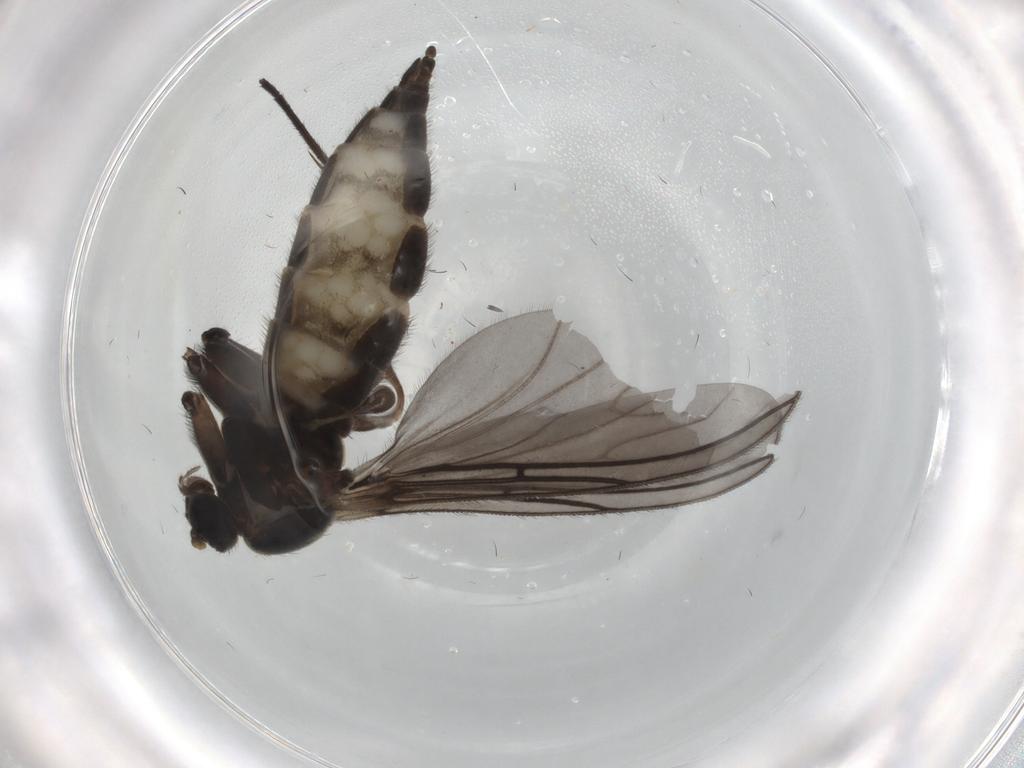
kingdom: Animalia
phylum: Arthropoda
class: Insecta
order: Diptera
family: Sciaridae
